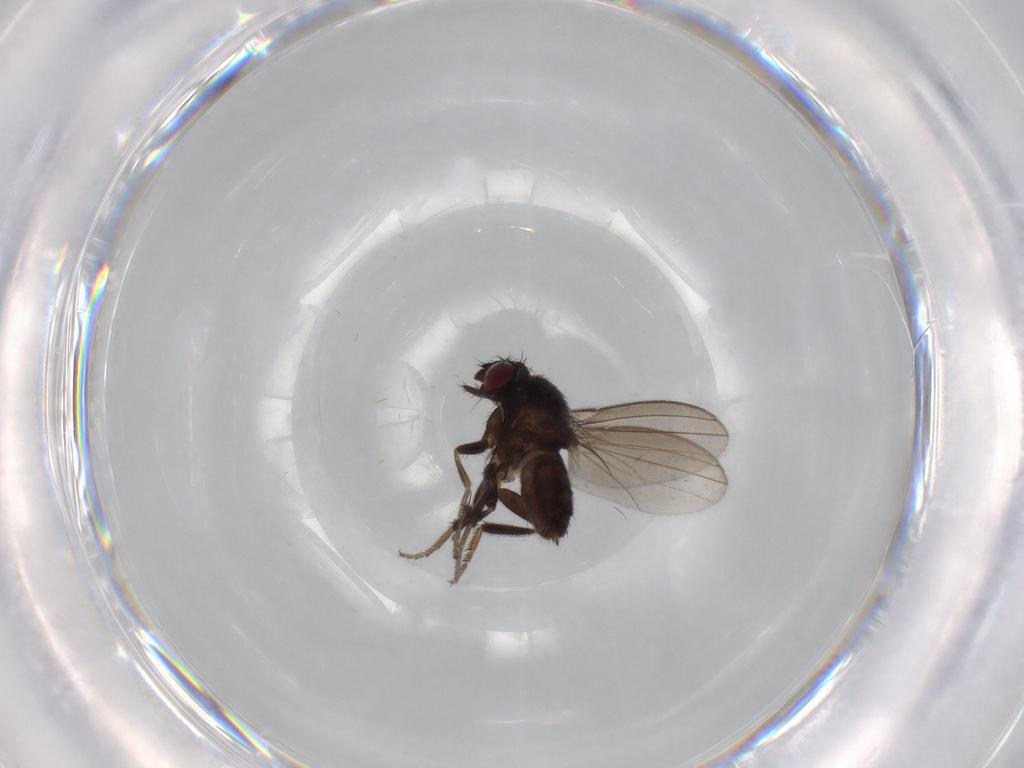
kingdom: Animalia
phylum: Arthropoda
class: Insecta
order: Diptera
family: Milichiidae
